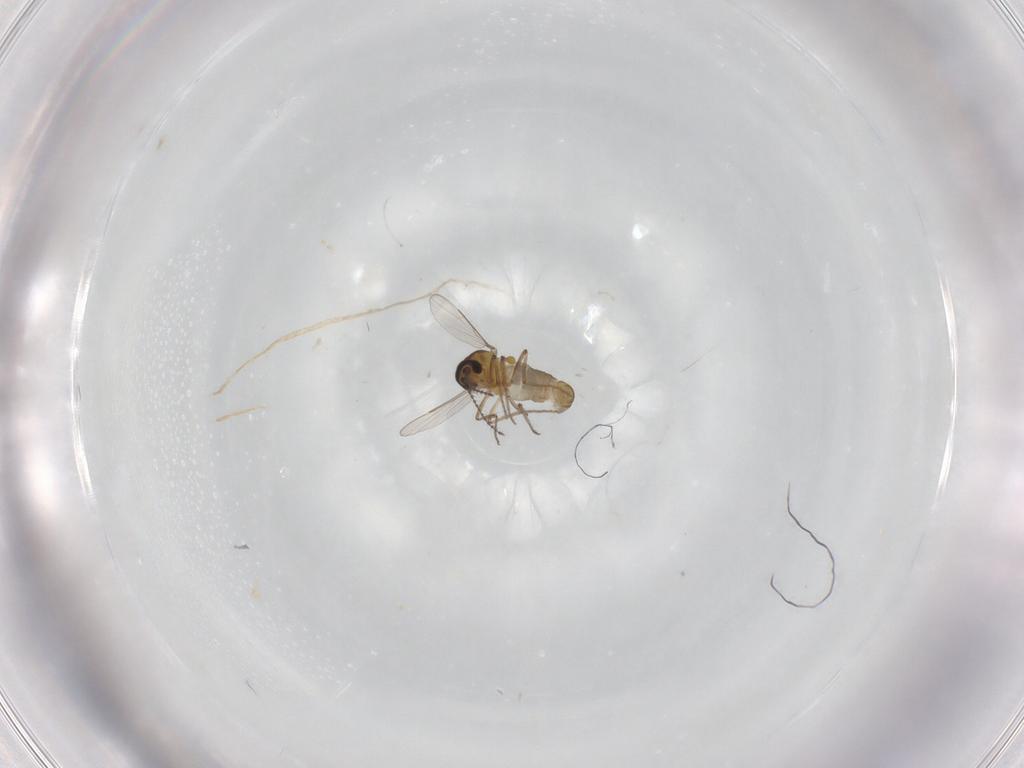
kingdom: Animalia
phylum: Arthropoda
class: Insecta
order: Diptera
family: Ceratopogonidae
